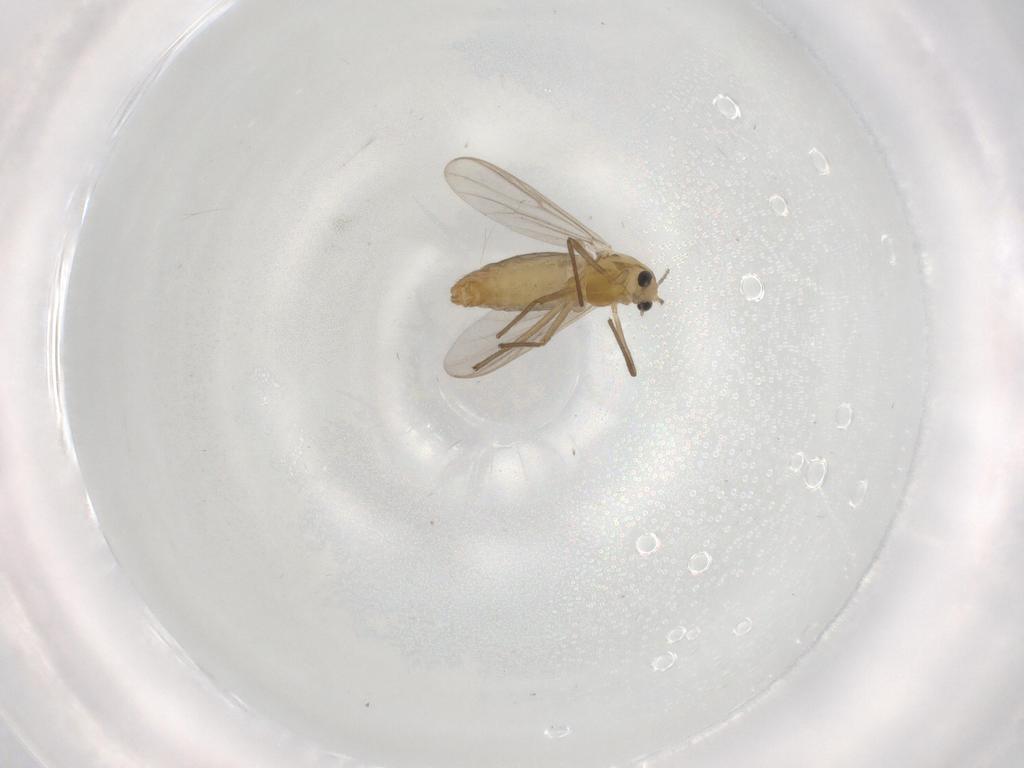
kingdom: Animalia
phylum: Arthropoda
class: Insecta
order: Diptera
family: Chironomidae
